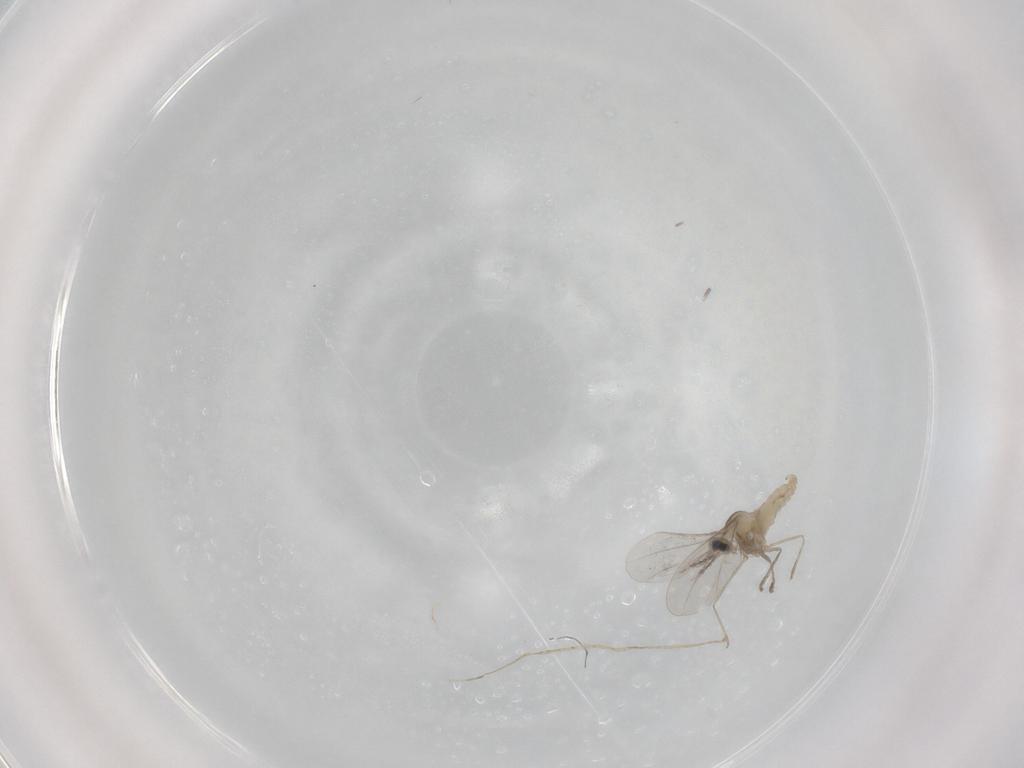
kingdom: Animalia
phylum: Arthropoda
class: Insecta
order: Diptera
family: Cecidomyiidae
